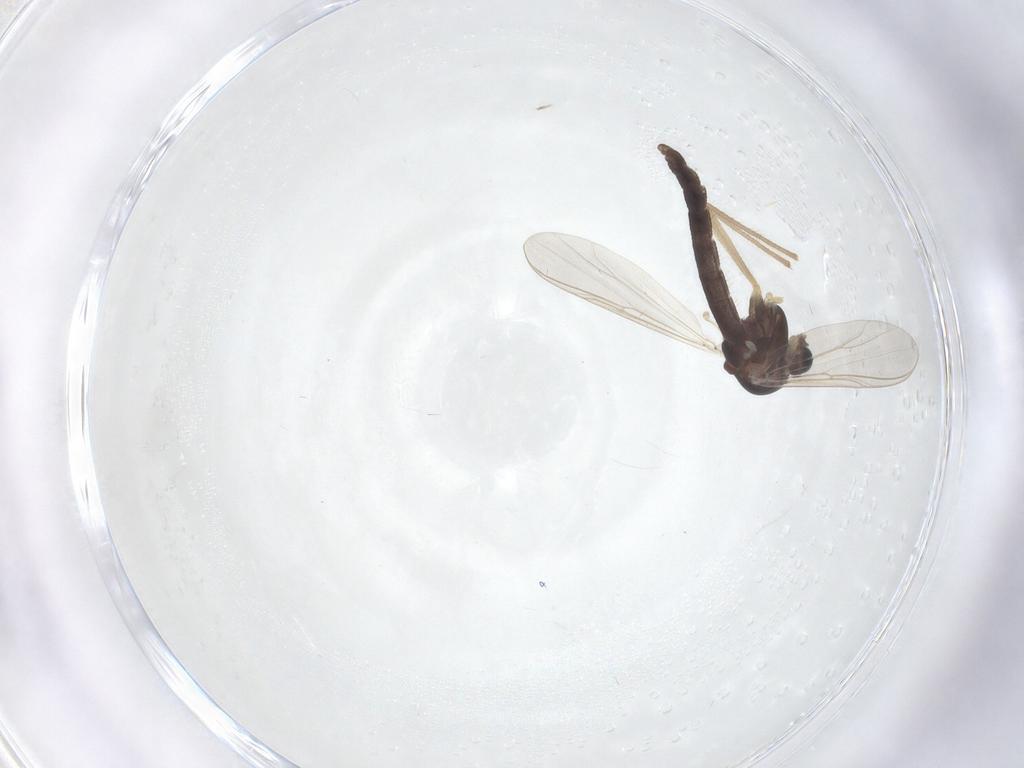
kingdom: Animalia
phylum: Arthropoda
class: Insecta
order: Diptera
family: Chironomidae
